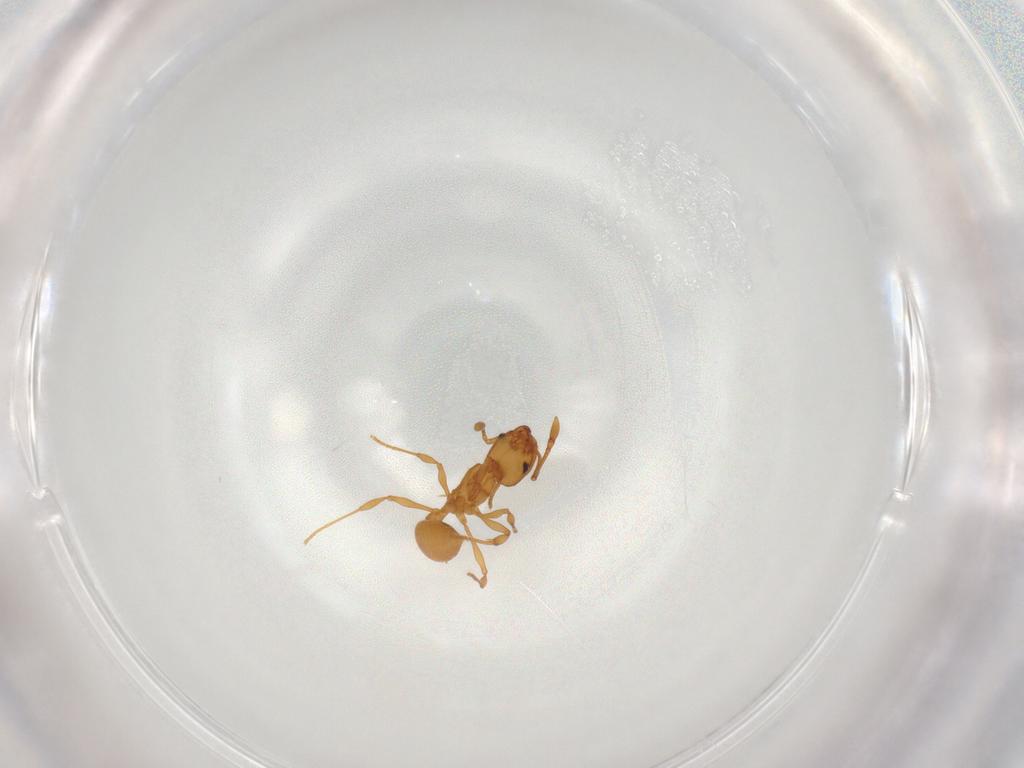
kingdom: Animalia
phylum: Arthropoda
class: Insecta
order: Hymenoptera
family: Formicidae
